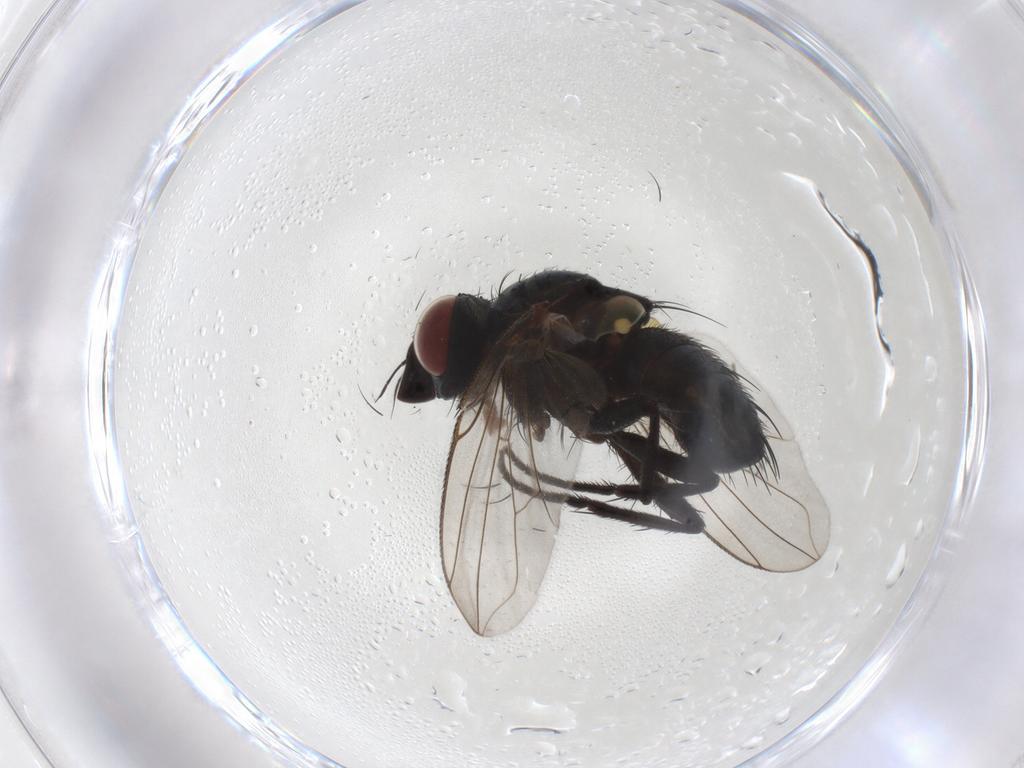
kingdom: Animalia
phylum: Arthropoda
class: Insecta
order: Diptera
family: Tachinidae
